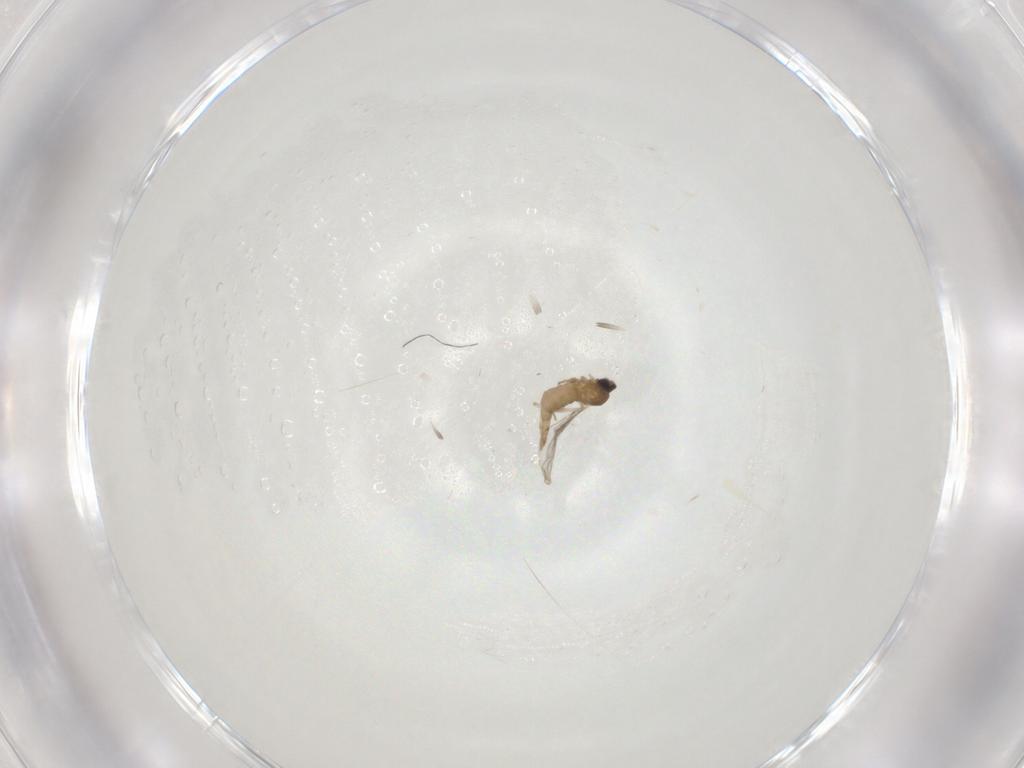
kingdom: Animalia
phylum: Arthropoda
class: Insecta
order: Diptera
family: Cecidomyiidae
